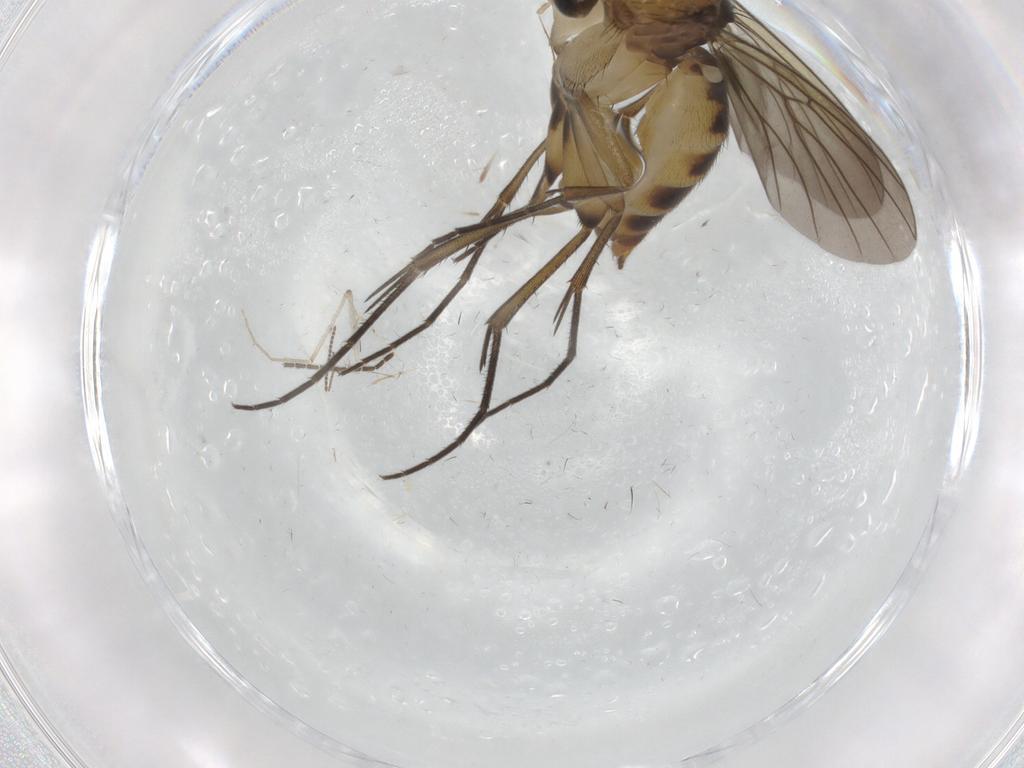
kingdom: Animalia
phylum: Arthropoda
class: Insecta
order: Diptera
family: Mycetophilidae
